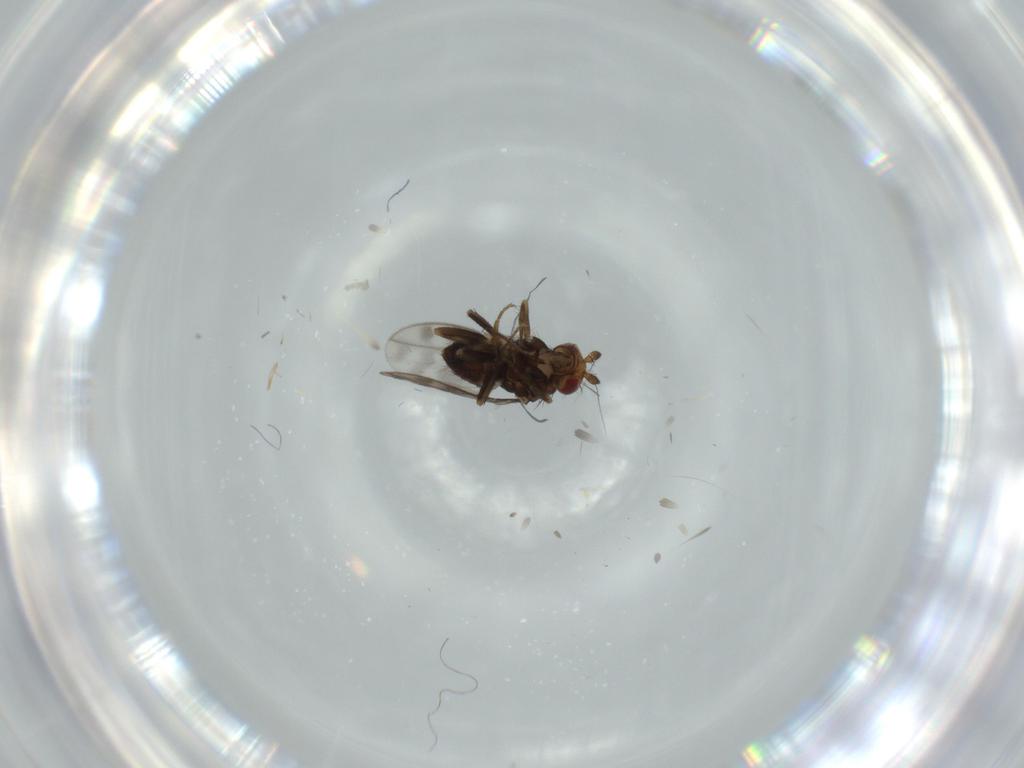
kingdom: Animalia
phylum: Arthropoda
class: Insecta
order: Diptera
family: Sphaeroceridae
